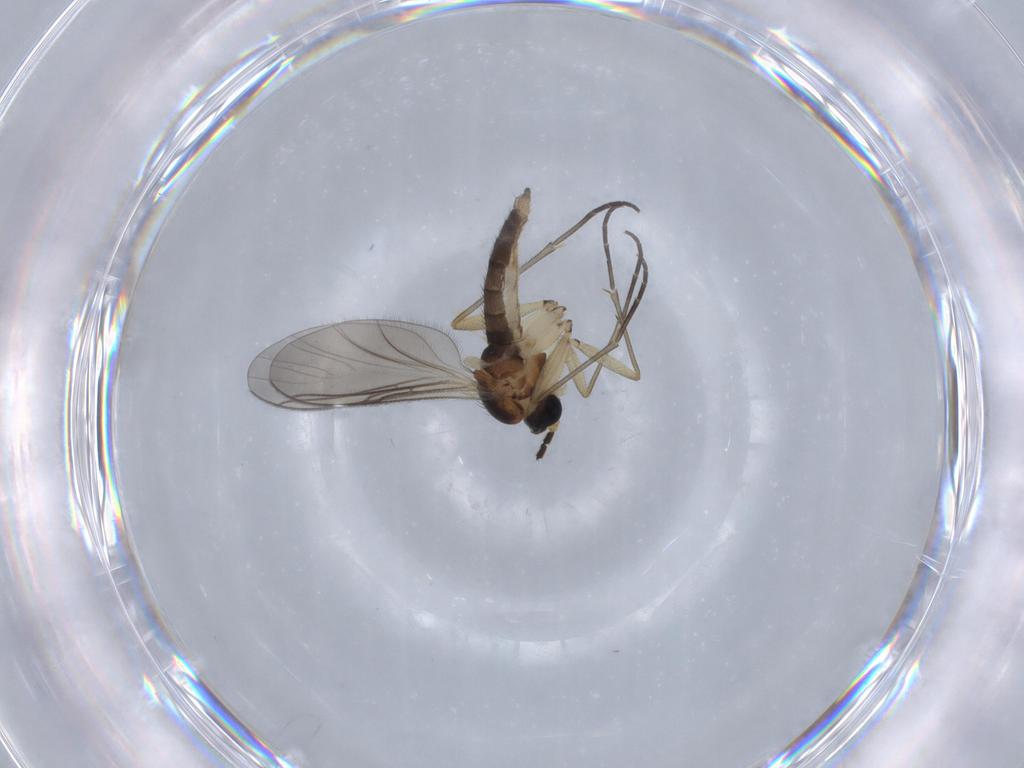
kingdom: Animalia
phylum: Arthropoda
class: Insecta
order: Diptera
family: Sciaridae
